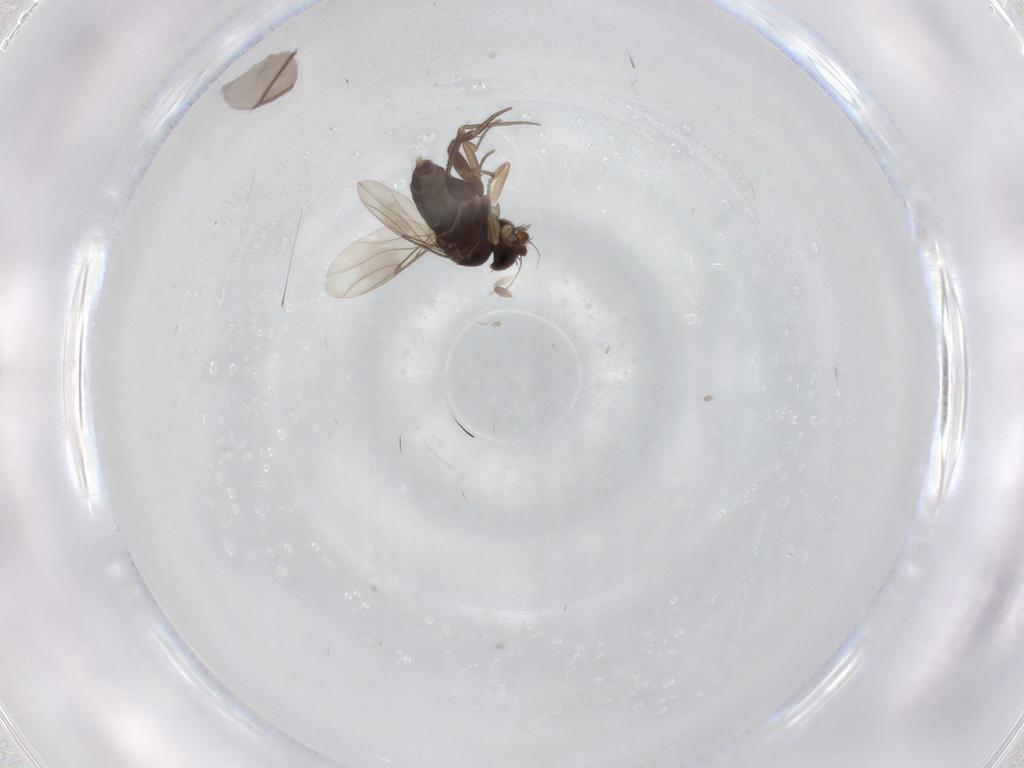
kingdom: Animalia
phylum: Arthropoda
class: Insecta
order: Diptera
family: Phoridae
